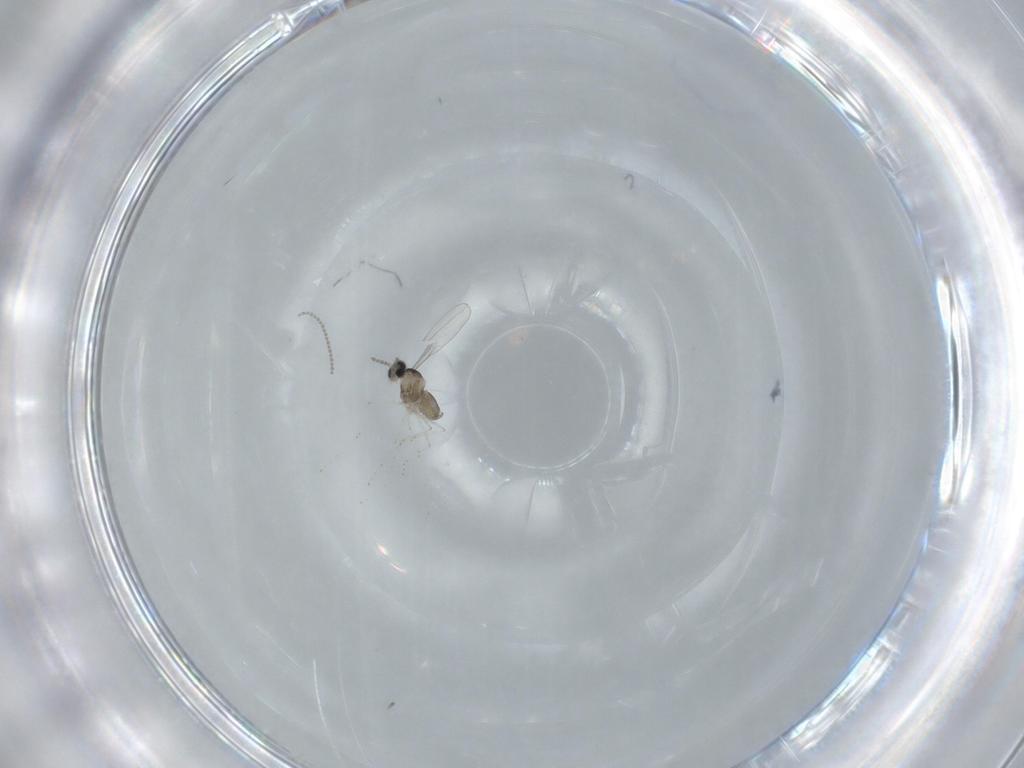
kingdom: Animalia
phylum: Arthropoda
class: Insecta
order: Diptera
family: Cecidomyiidae
